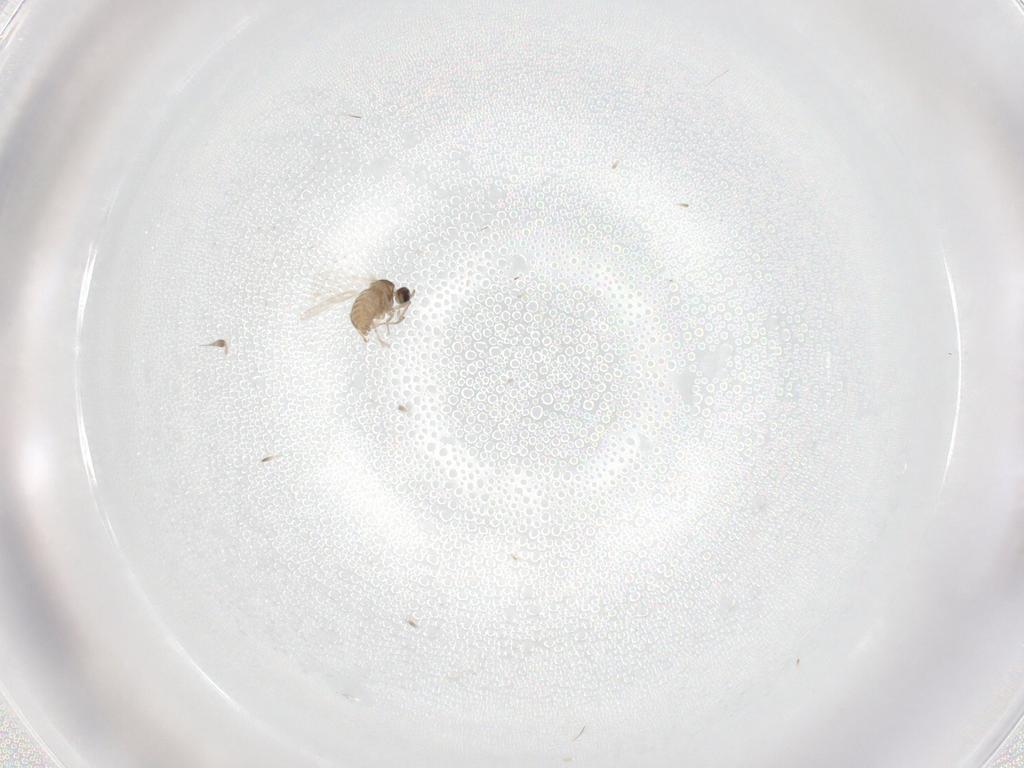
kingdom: Animalia
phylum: Arthropoda
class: Insecta
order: Diptera
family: Cecidomyiidae
